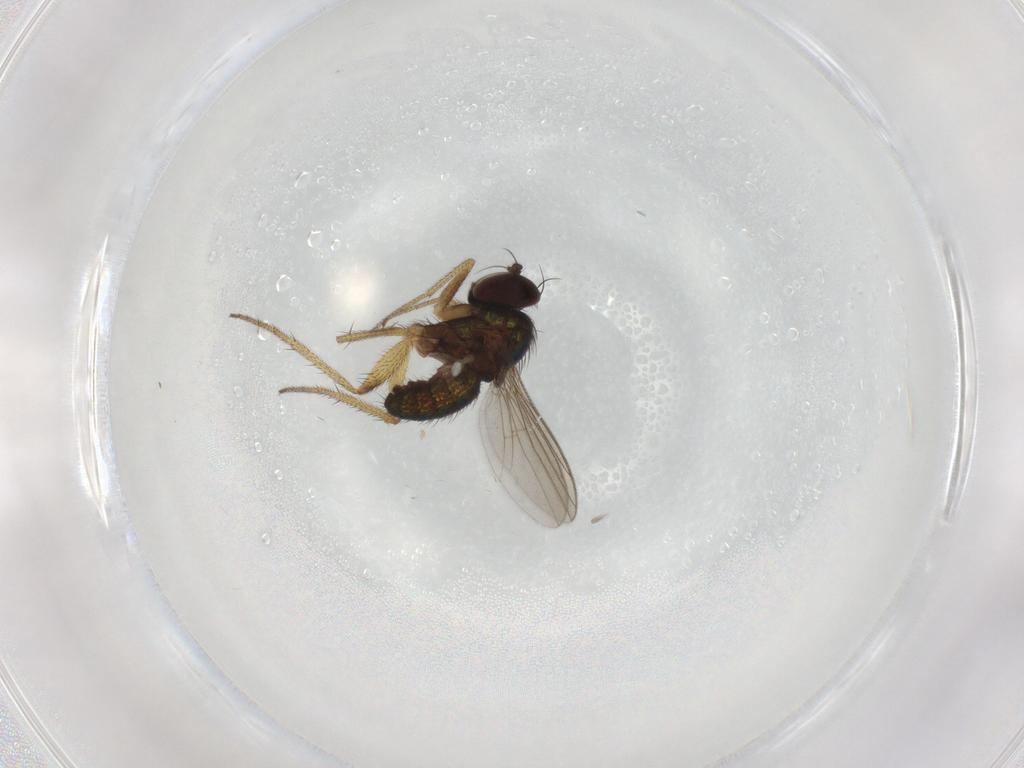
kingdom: Animalia
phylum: Arthropoda
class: Insecta
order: Diptera
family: Dolichopodidae
